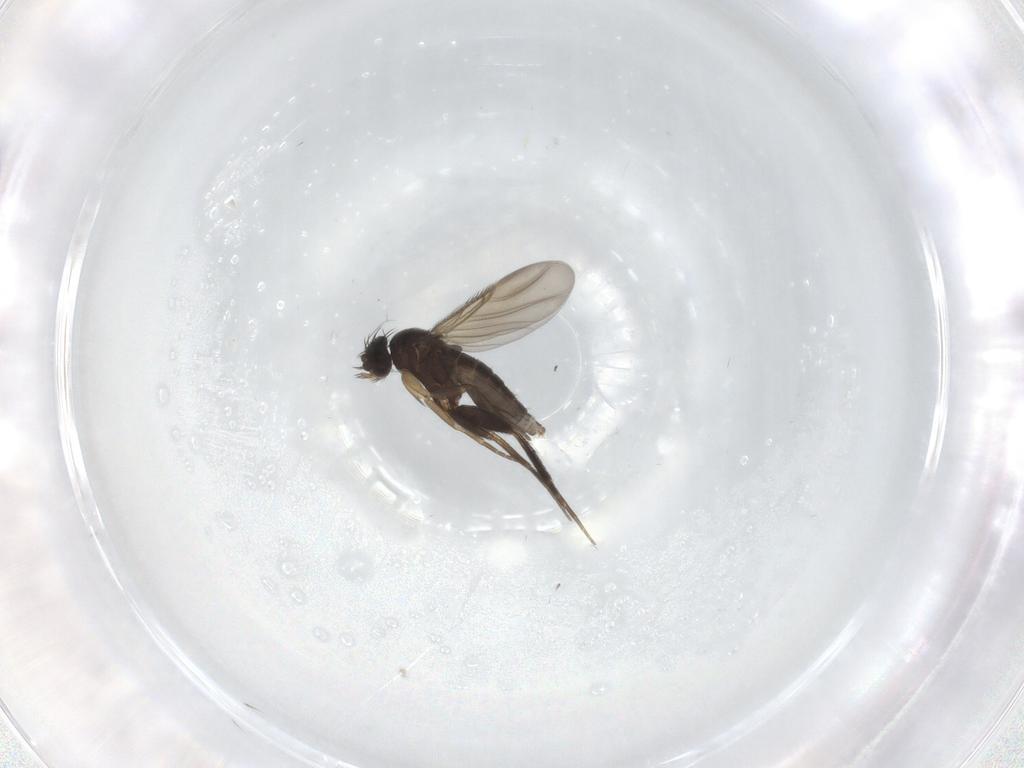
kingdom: Animalia
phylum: Arthropoda
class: Insecta
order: Diptera
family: Phoridae
